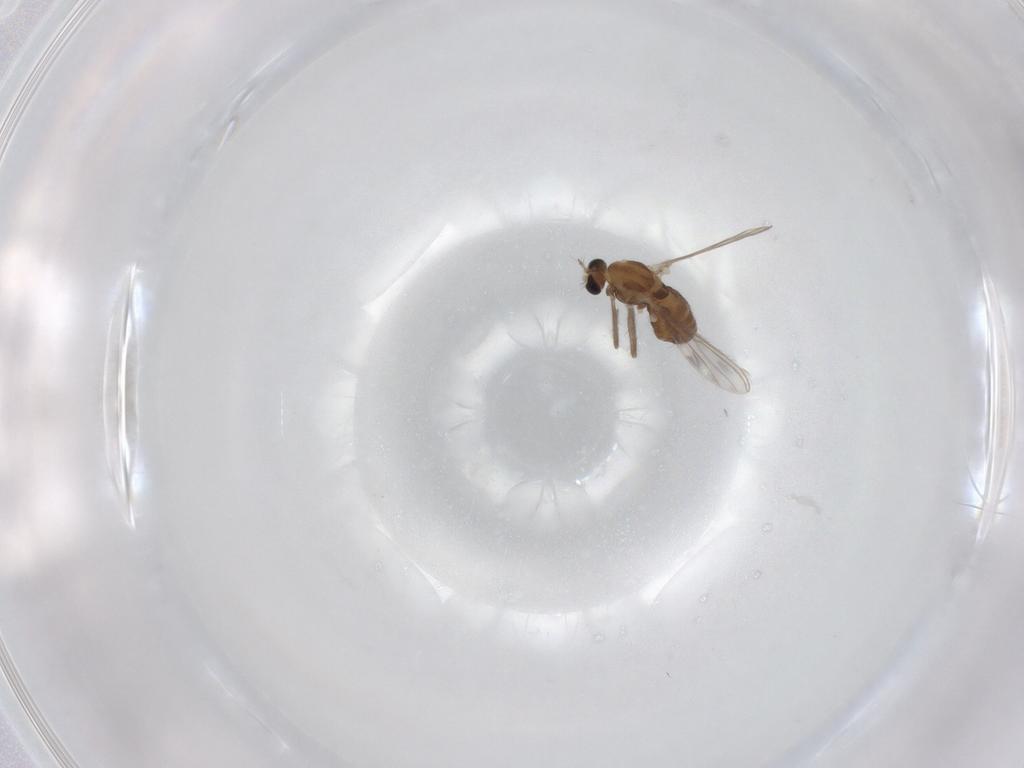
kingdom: Animalia
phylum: Arthropoda
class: Insecta
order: Diptera
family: Chironomidae
